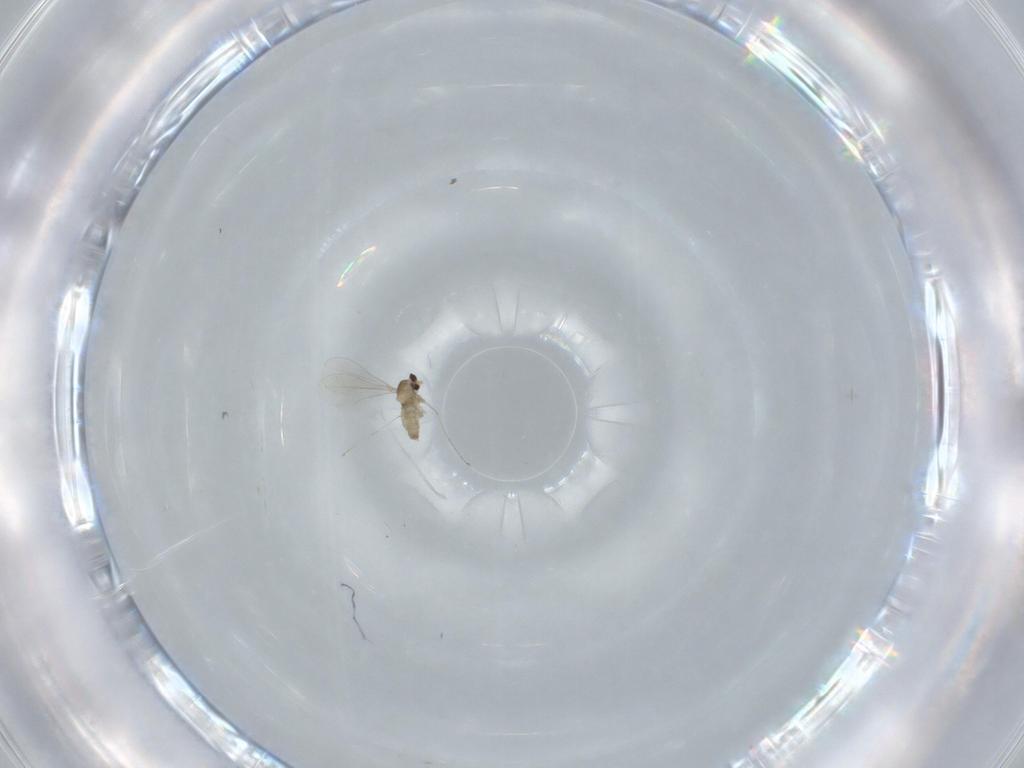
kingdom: Animalia
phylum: Arthropoda
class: Insecta
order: Diptera
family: Cecidomyiidae
